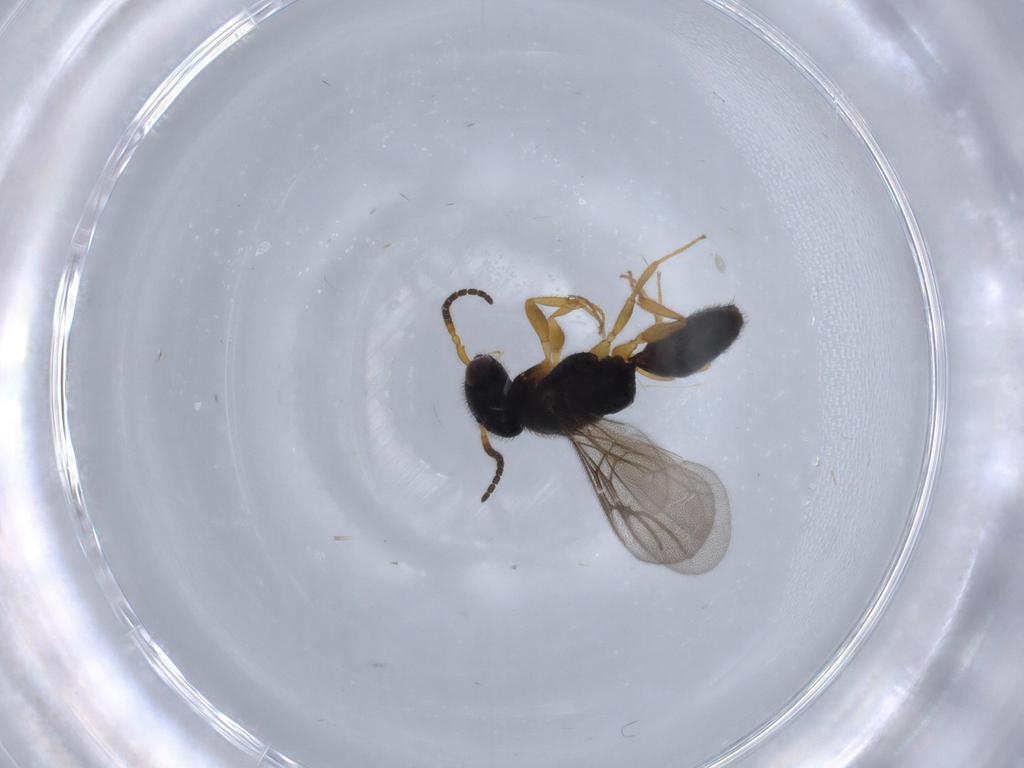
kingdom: Animalia
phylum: Arthropoda
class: Insecta
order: Hymenoptera
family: Bethylidae
